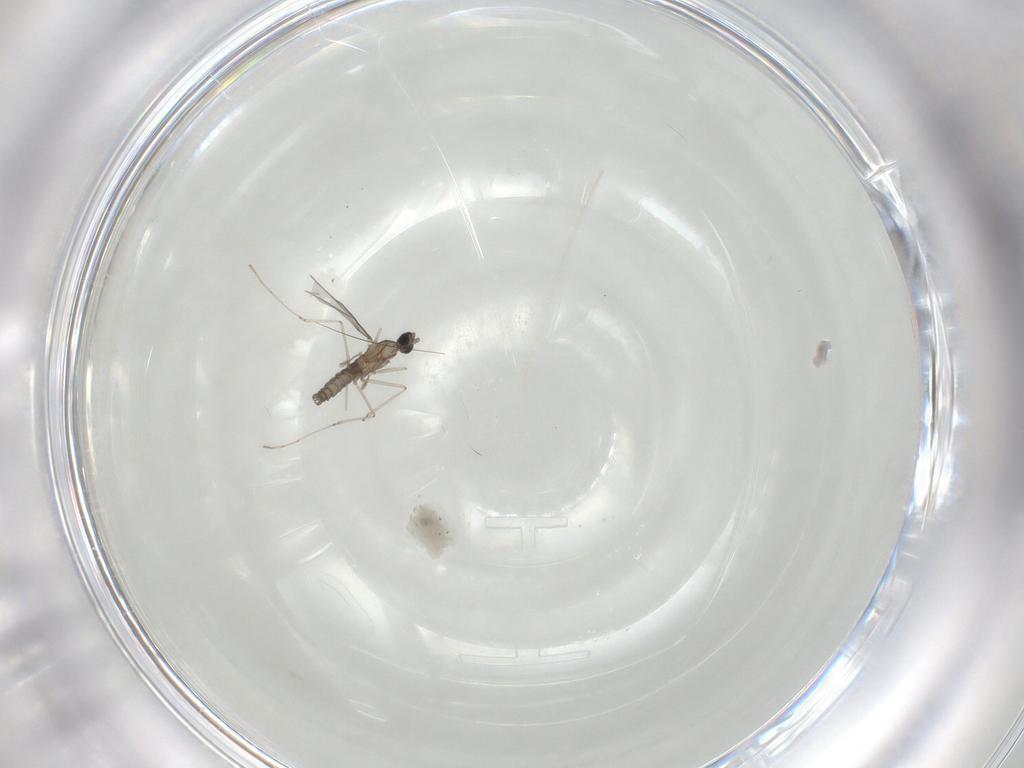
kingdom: Animalia
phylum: Arthropoda
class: Insecta
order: Diptera
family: Cecidomyiidae
